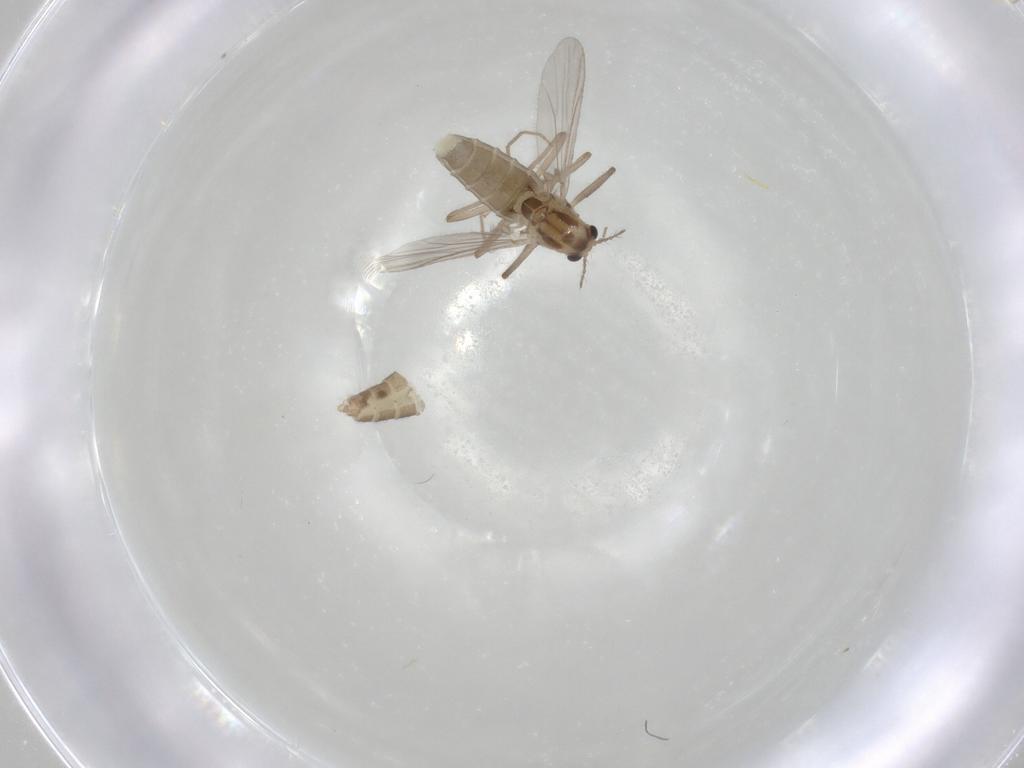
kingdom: Animalia
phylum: Arthropoda
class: Insecta
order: Diptera
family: Chironomidae
